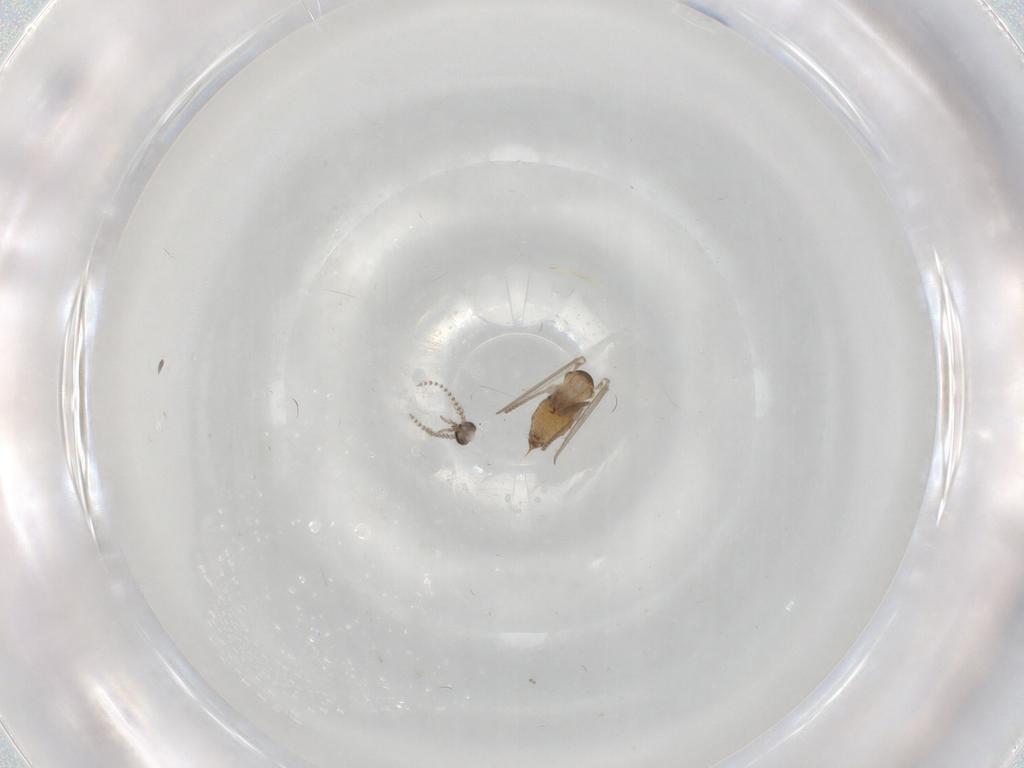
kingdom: Animalia
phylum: Arthropoda
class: Insecta
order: Diptera
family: Psychodidae
